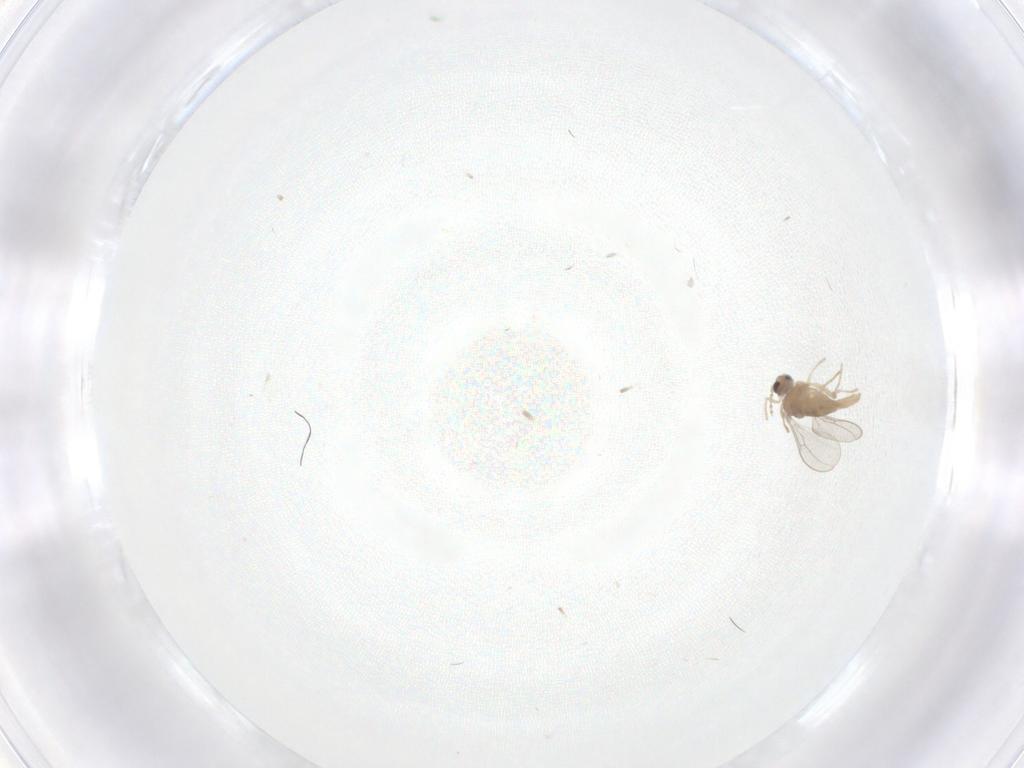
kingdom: Animalia
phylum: Arthropoda
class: Insecta
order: Diptera
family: Cecidomyiidae
